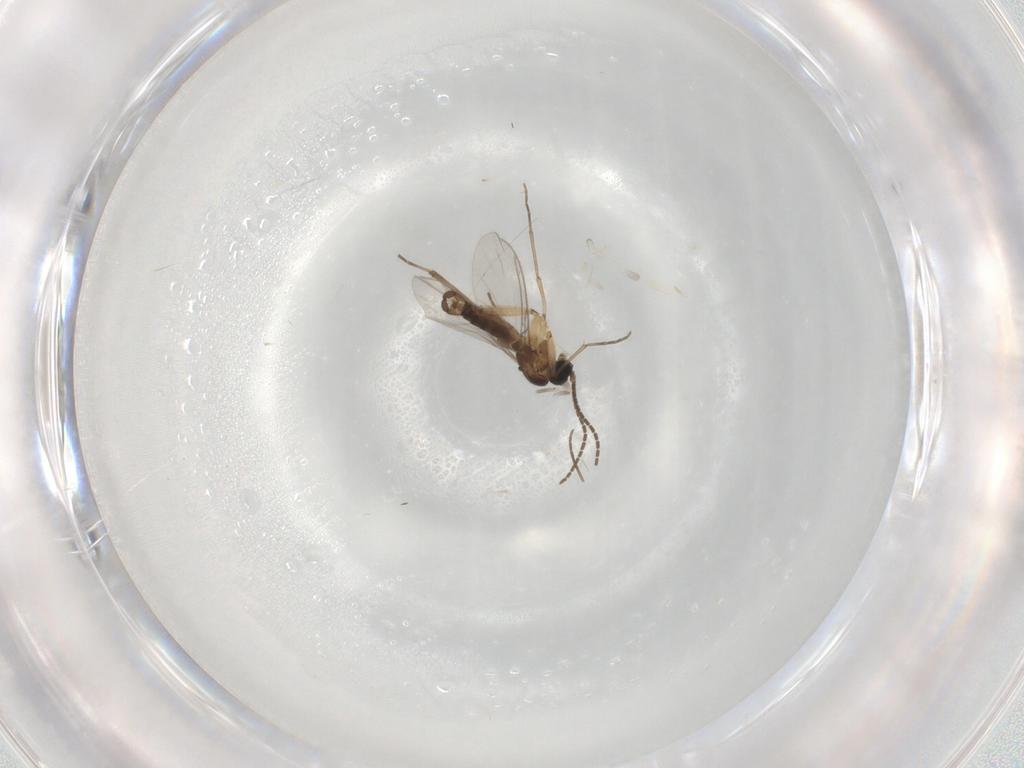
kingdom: Animalia
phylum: Arthropoda
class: Insecta
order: Diptera
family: Sciaridae
